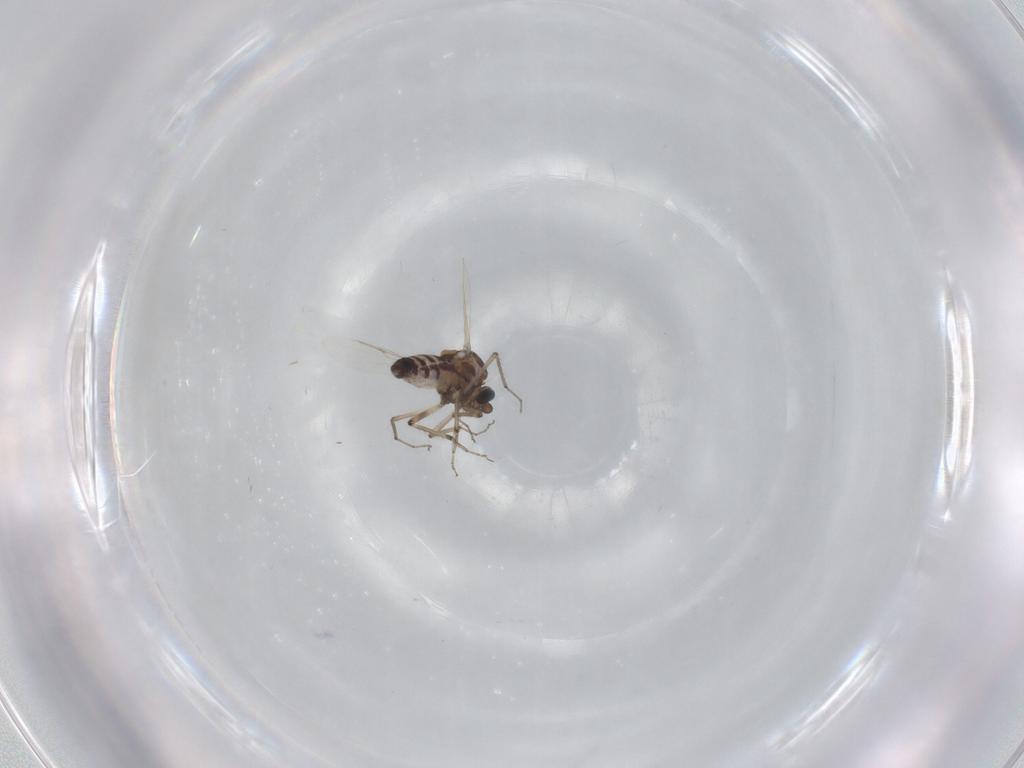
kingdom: Animalia
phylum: Arthropoda
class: Insecta
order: Diptera
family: Ceratopogonidae
